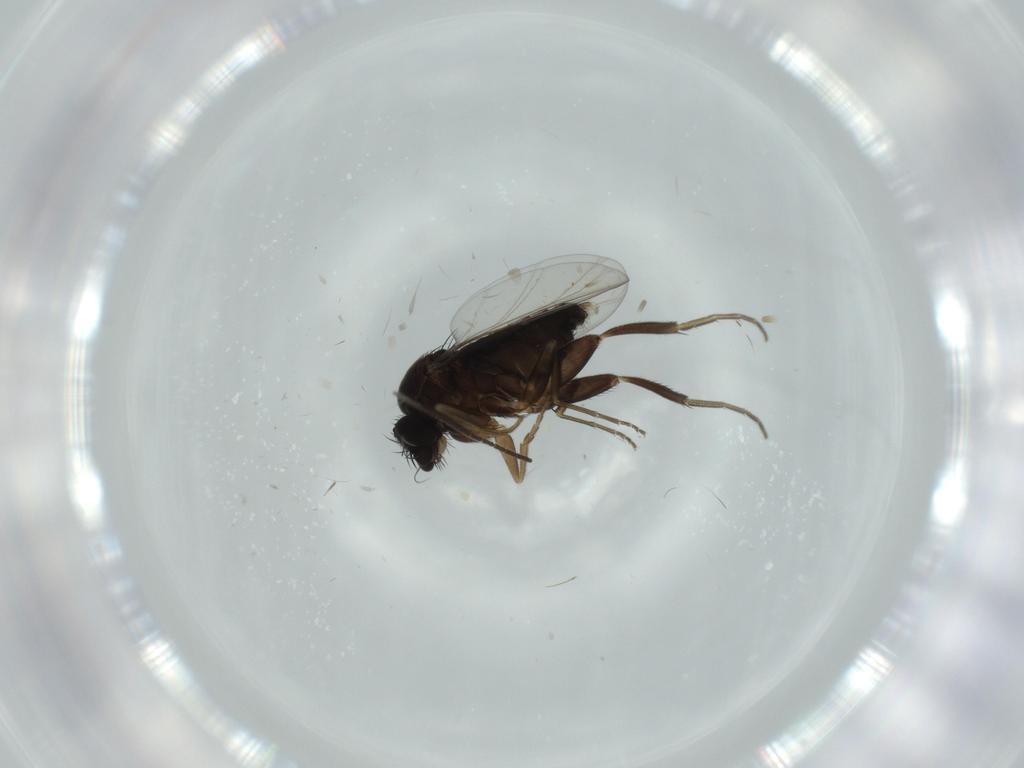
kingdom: Animalia
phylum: Arthropoda
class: Insecta
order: Diptera
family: Phoridae
